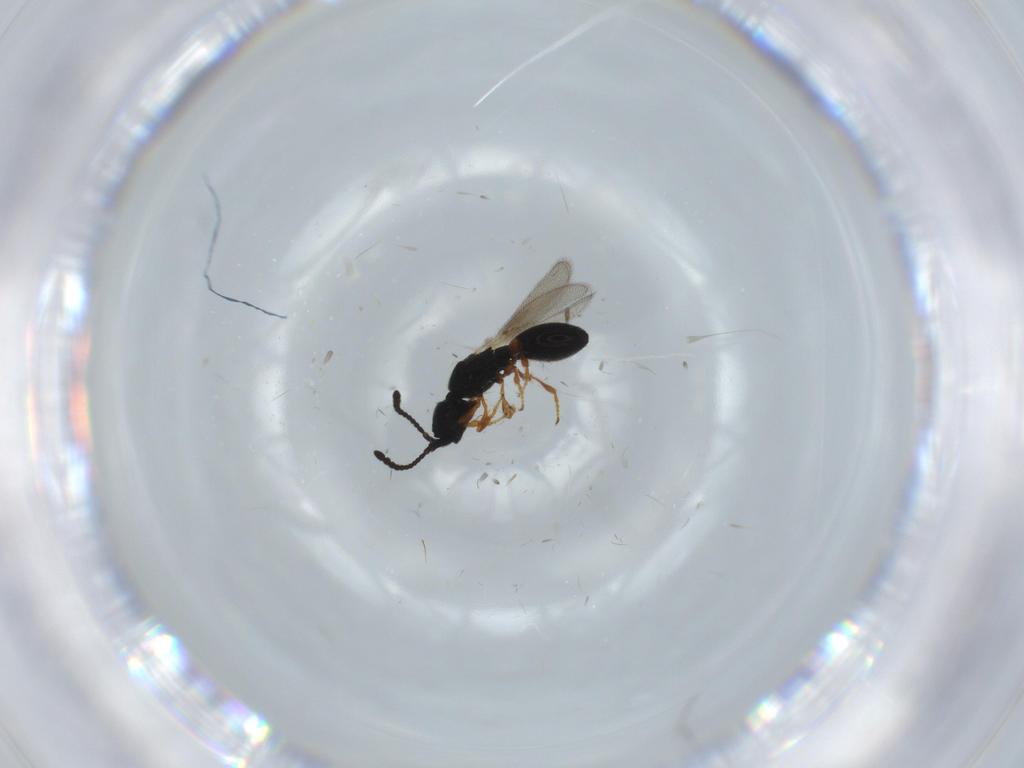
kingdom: Animalia
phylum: Arthropoda
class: Insecta
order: Hymenoptera
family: Diapriidae
